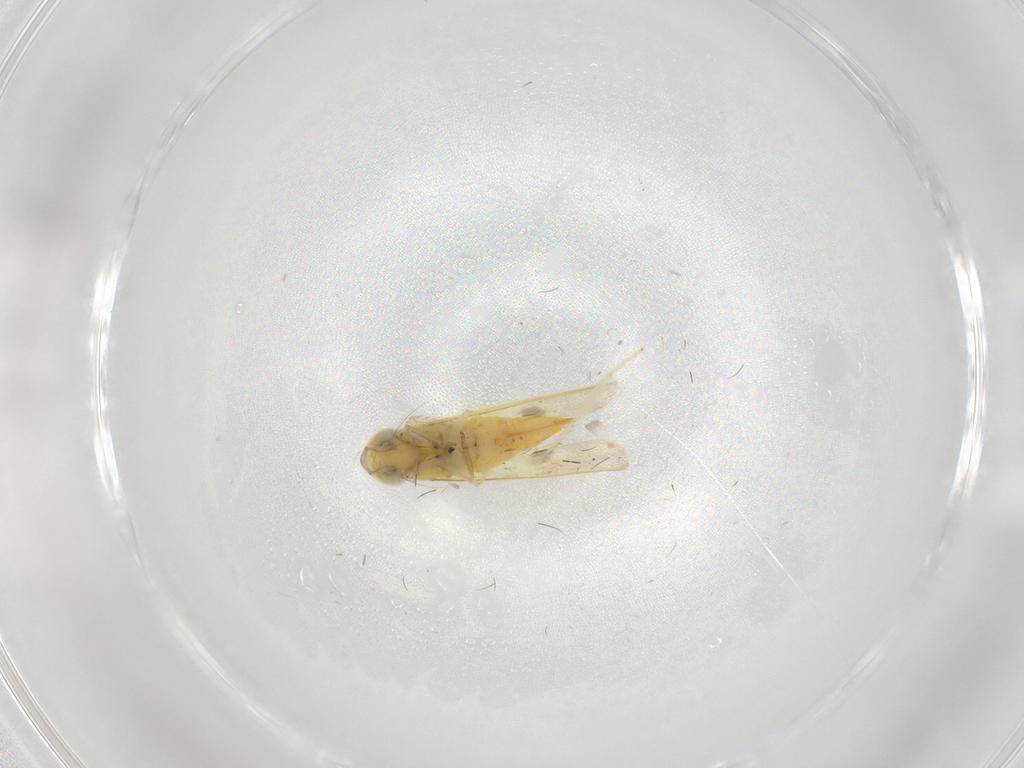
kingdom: Animalia
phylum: Arthropoda
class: Insecta
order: Hemiptera
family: Cicadellidae
